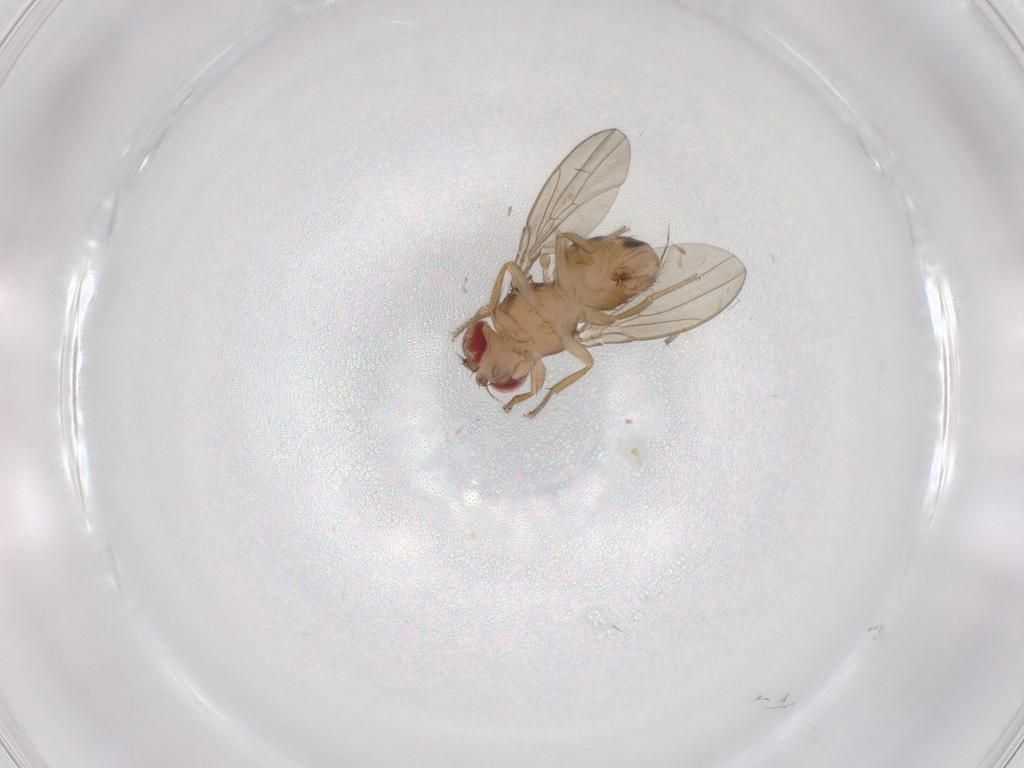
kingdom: Animalia
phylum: Arthropoda
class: Insecta
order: Diptera
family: Drosophilidae
